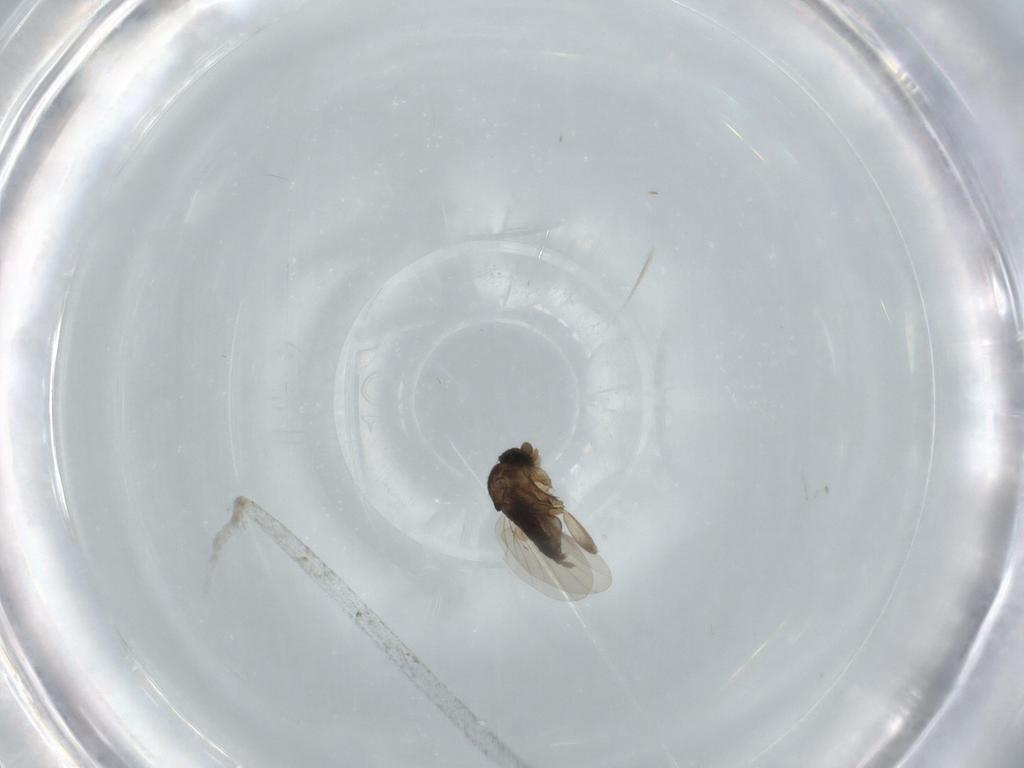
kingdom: Animalia
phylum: Arthropoda
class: Insecta
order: Diptera
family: Phoridae
